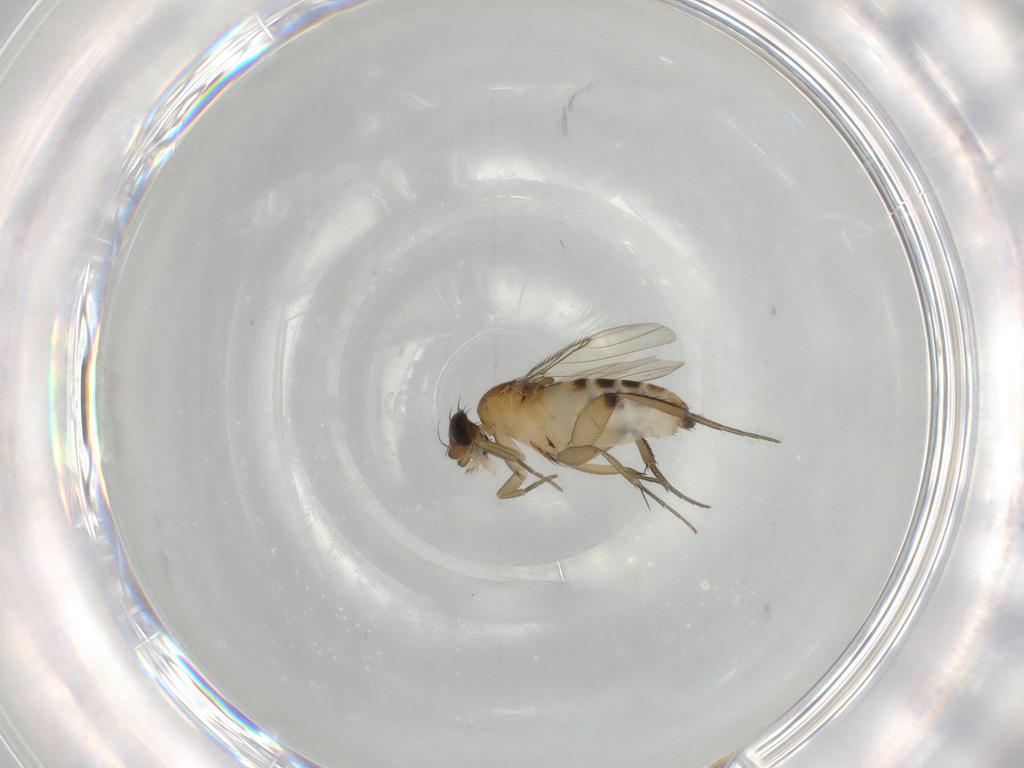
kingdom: Animalia
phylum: Arthropoda
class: Insecta
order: Diptera
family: Phoridae
